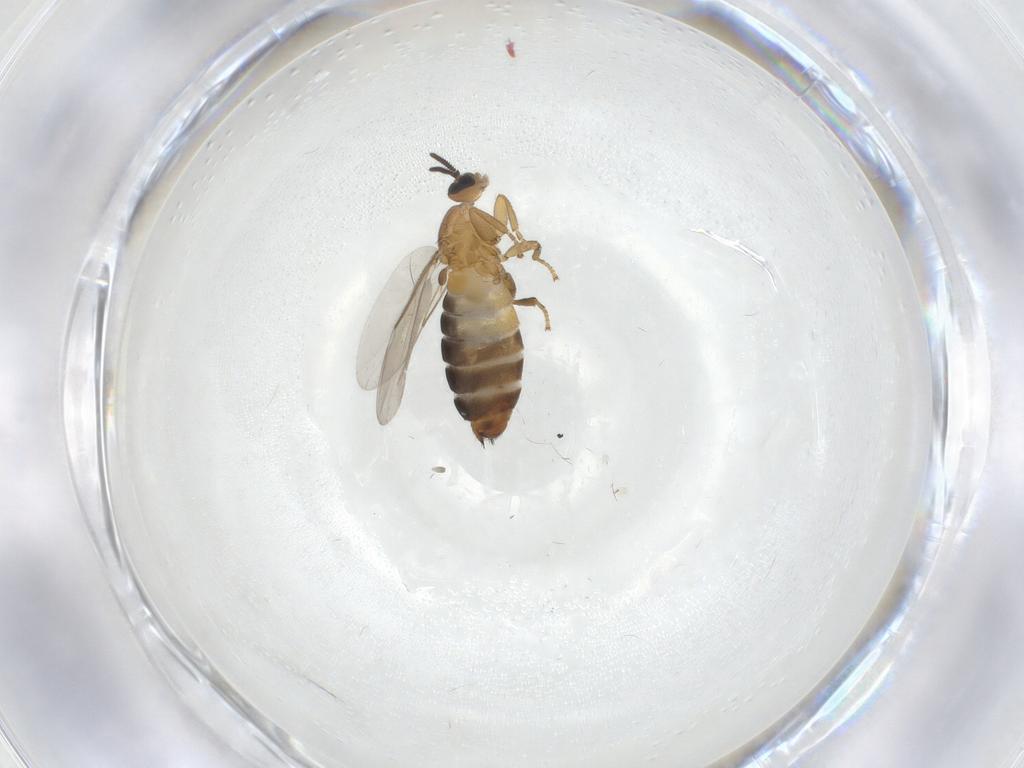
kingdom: Animalia
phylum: Arthropoda
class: Insecta
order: Diptera
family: Scatopsidae
